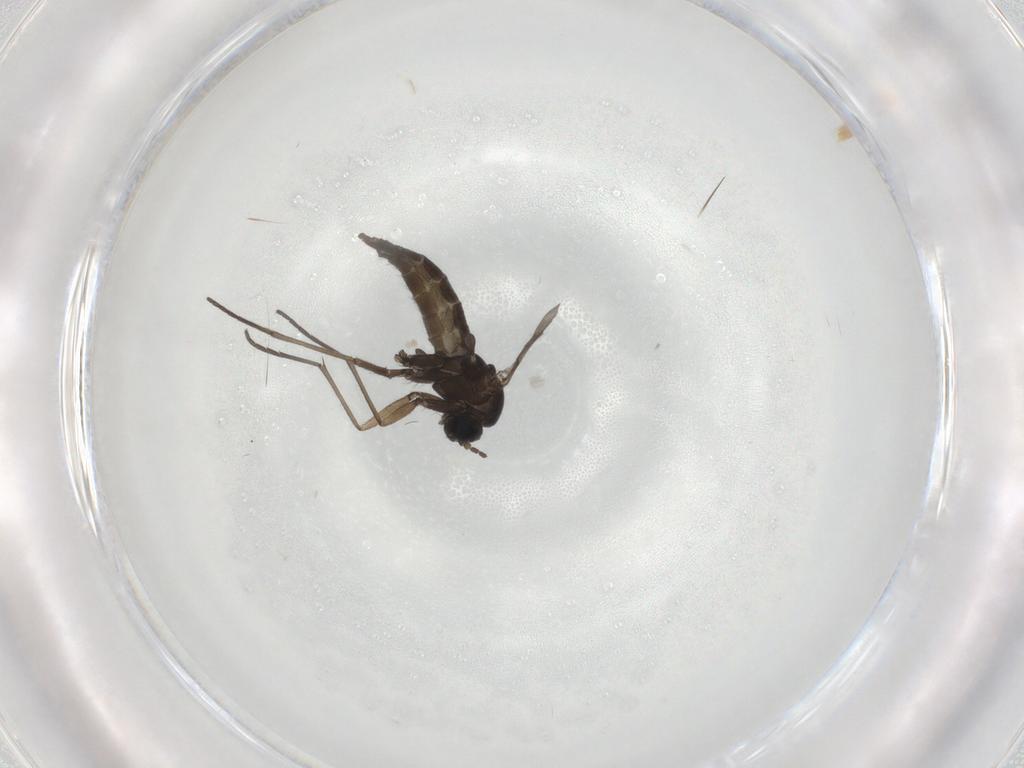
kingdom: Animalia
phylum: Arthropoda
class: Insecta
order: Diptera
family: Sciaridae
